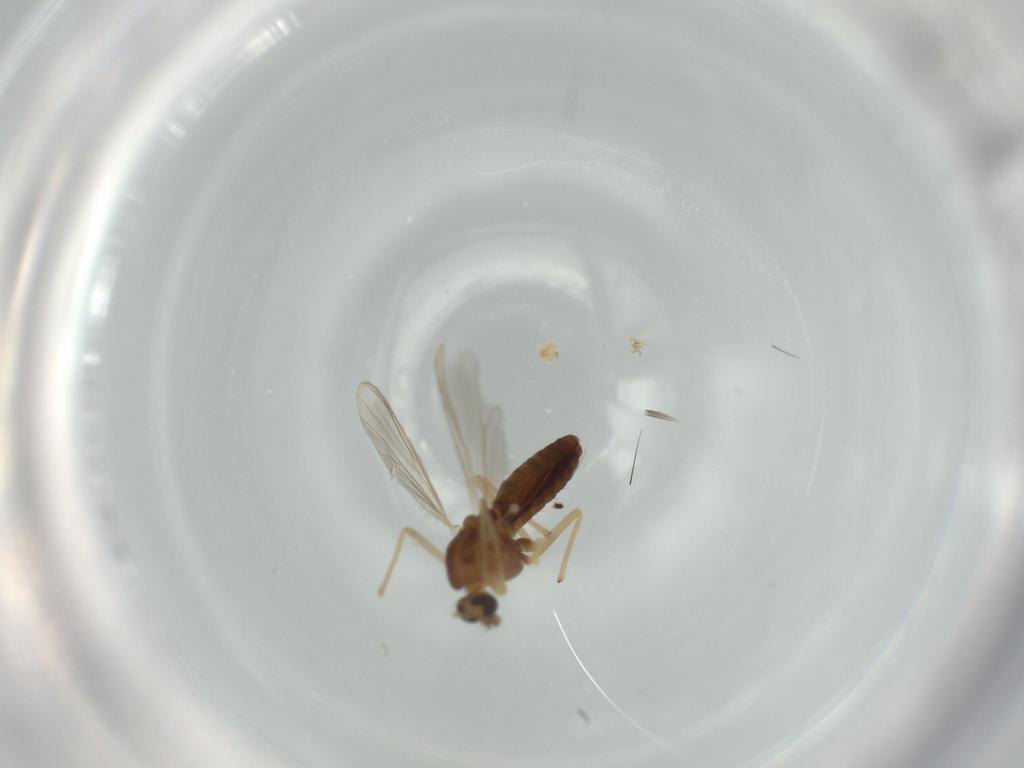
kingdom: Animalia
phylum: Arthropoda
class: Insecta
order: Diptera
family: Chironomidae
